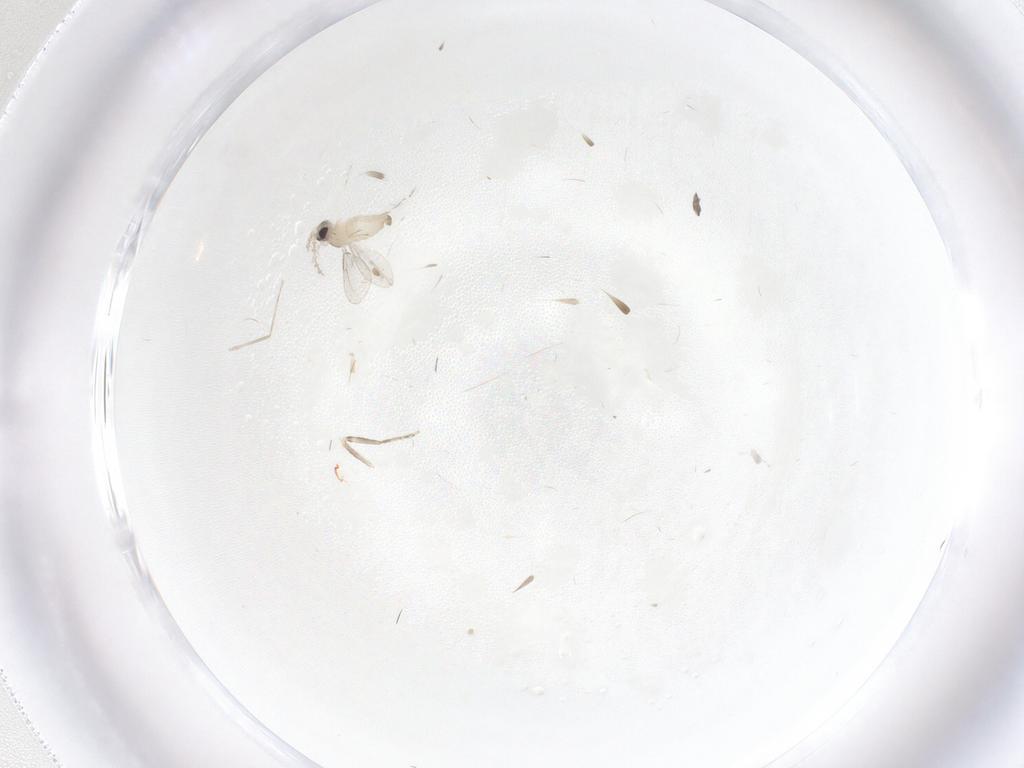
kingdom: Animalia
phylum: Arthropoda
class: Insecta
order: Diptera
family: Cecidomyiidae
